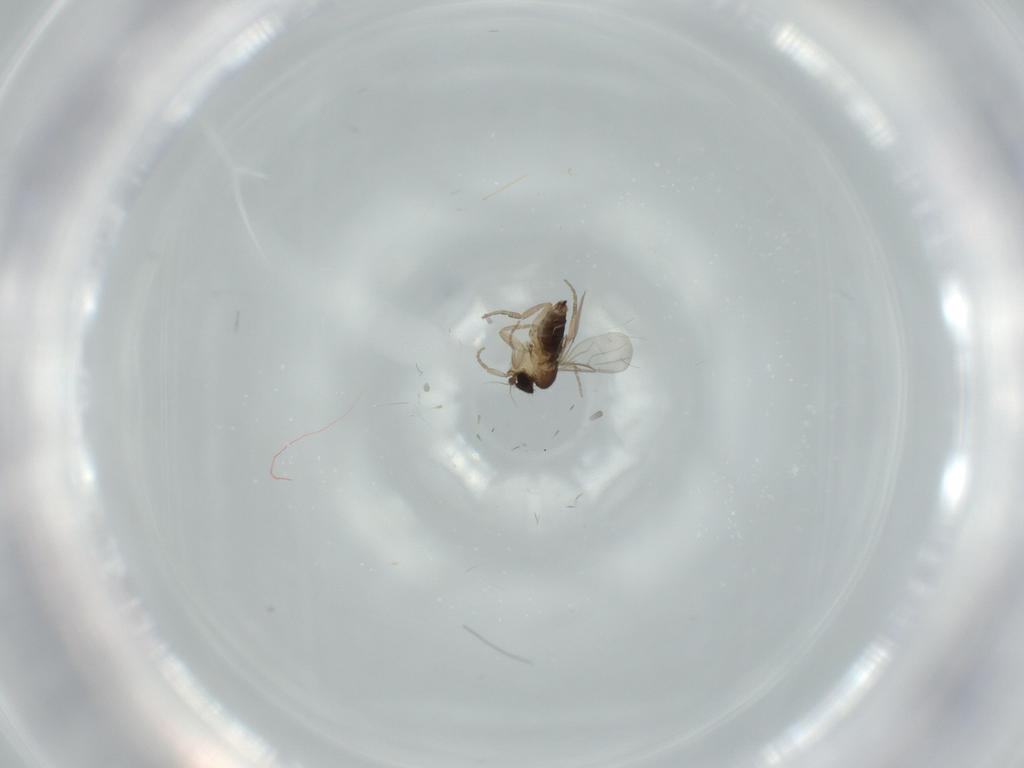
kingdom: Animalia
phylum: Arthropoda
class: Insecta
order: Diptera
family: Phoridae
